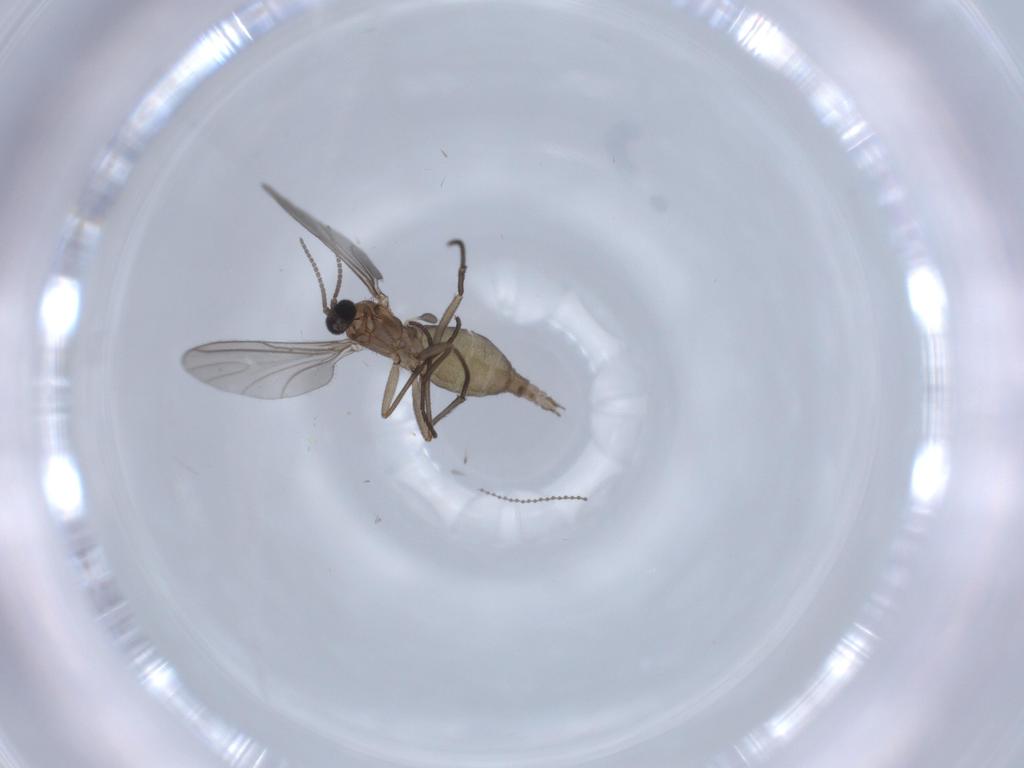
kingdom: Animalia
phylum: Arthropoda
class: Insecta
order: Diptera
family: Sciaridae
